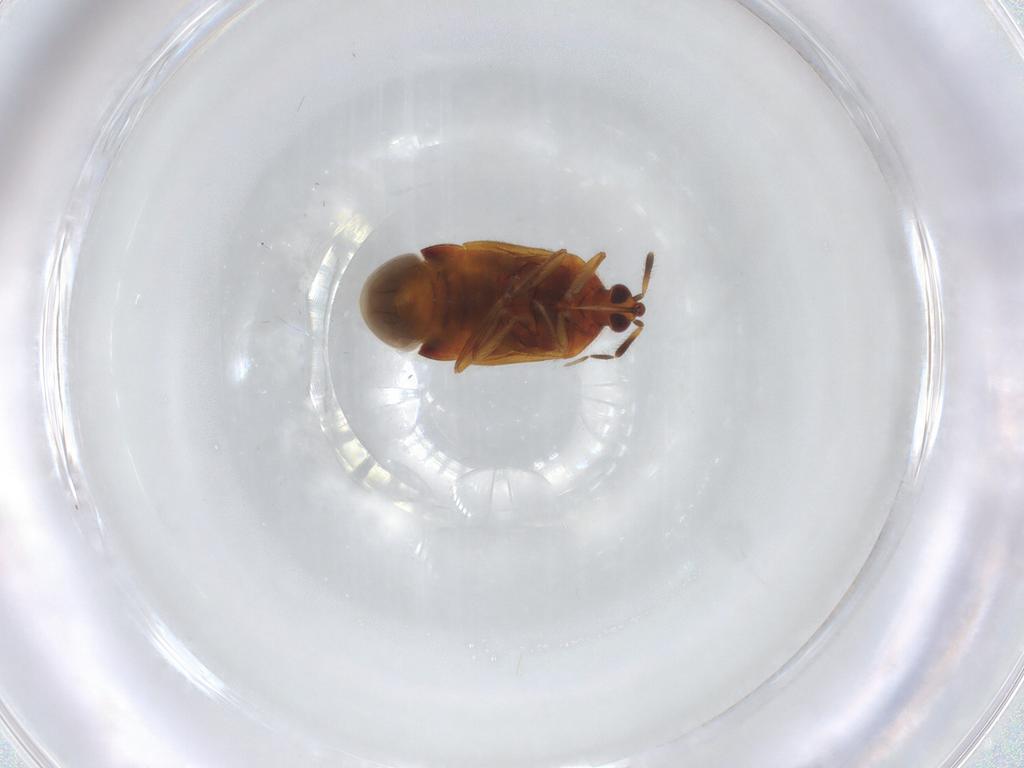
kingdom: Animalia
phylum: Arthropoda
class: Insecta
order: Hemiptera
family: Anthocoridae
